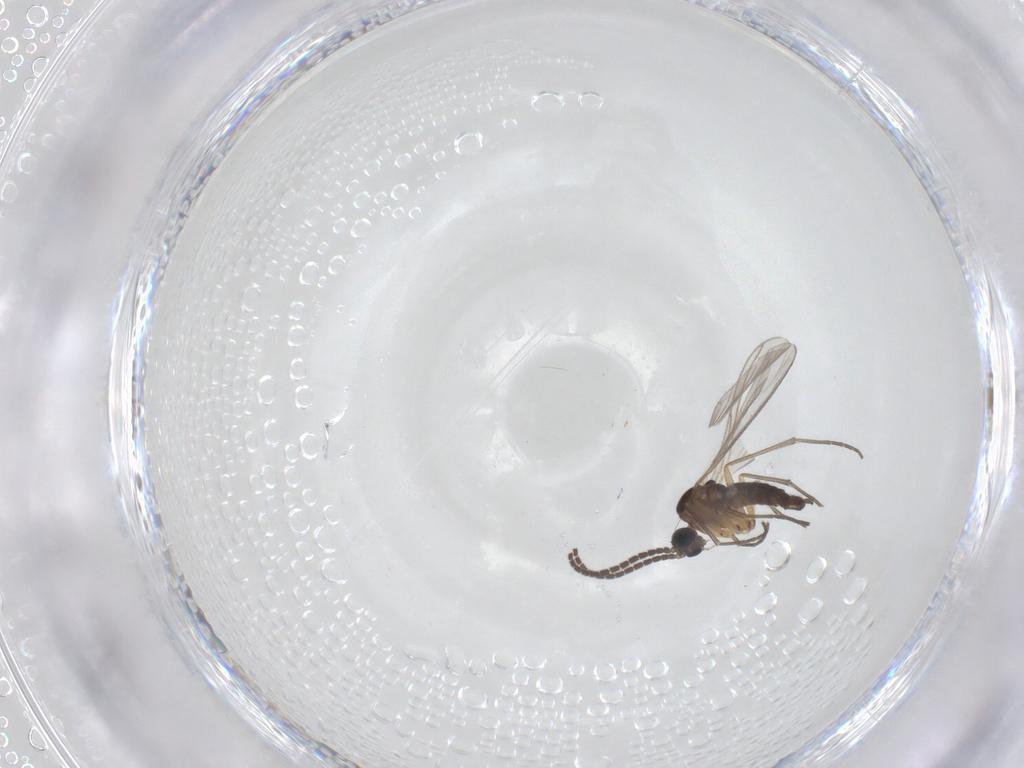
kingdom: Animalia
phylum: Arthropoda
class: Insecta
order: Diptera
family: Sciaridae
